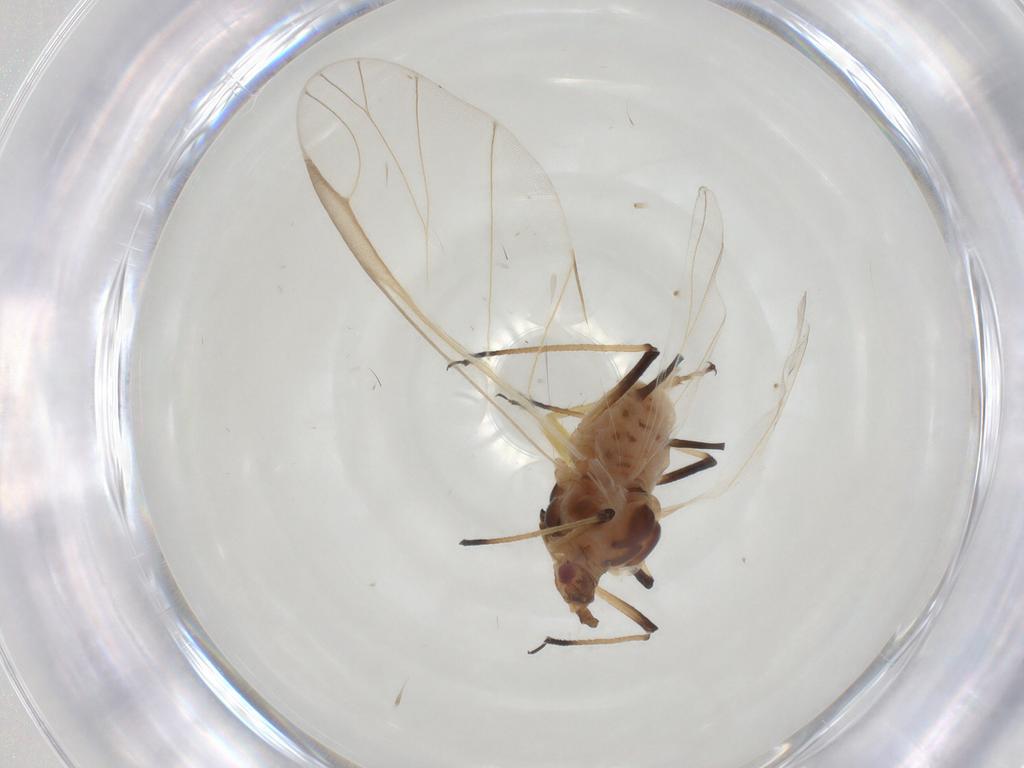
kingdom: Animalia
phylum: Arthropoda
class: Insecta
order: Hemiptera
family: Aphididae
